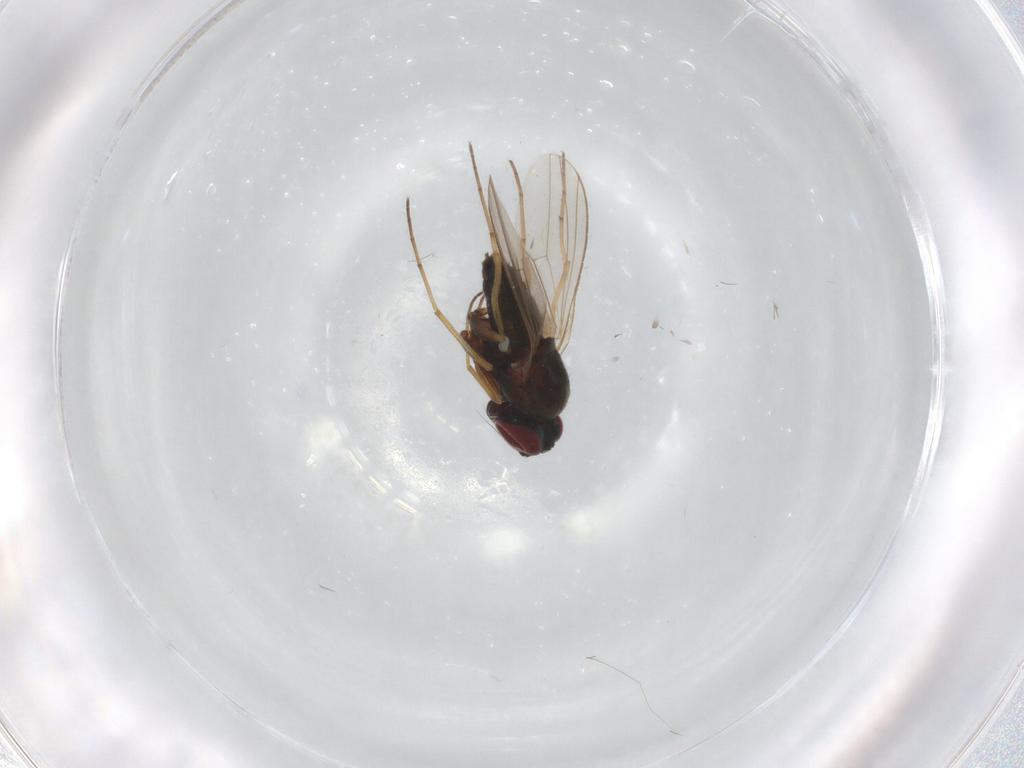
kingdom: Animalia
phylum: Arthropoda
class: Insecta
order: Diptera
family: Phoridae
